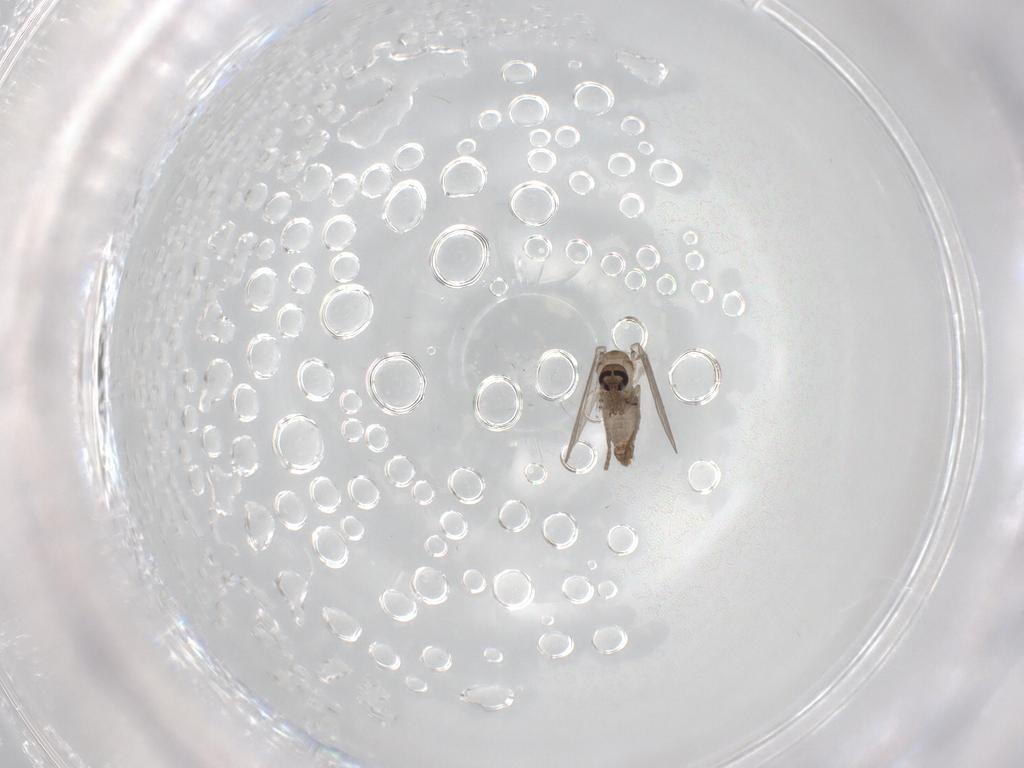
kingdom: Animalia
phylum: Arthropoda
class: Insecta
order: Diptera
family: Psychodidae
